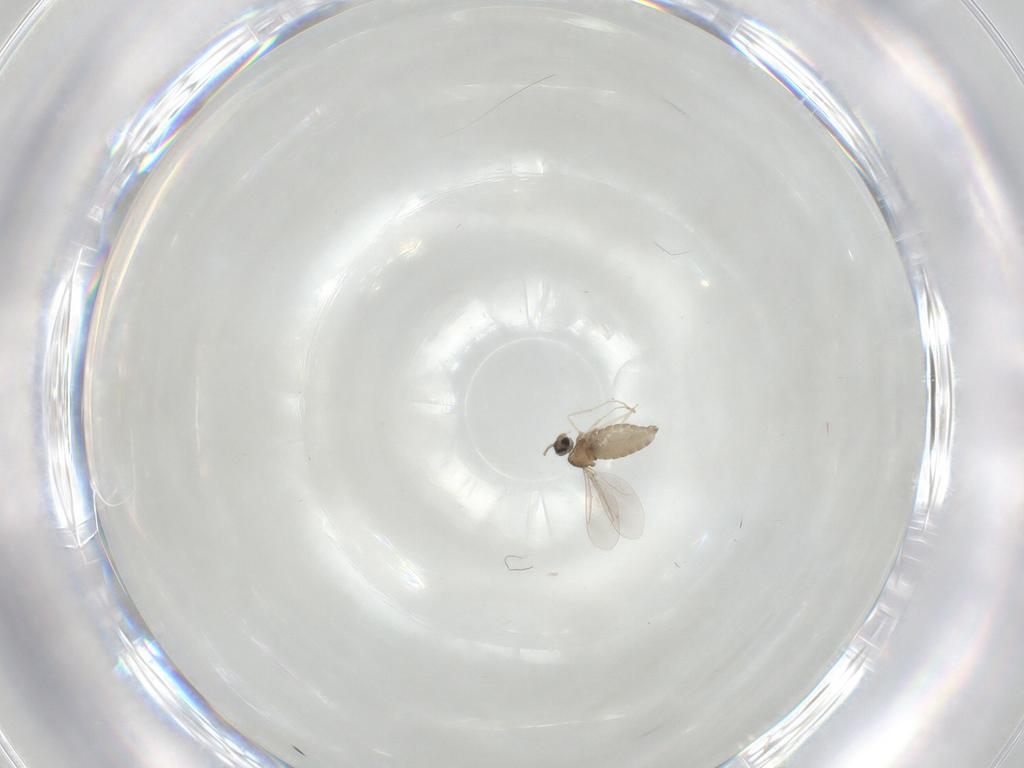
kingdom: Animalia
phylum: Arthropoda
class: Insecta
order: Diptera
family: Cecidomyiidae
